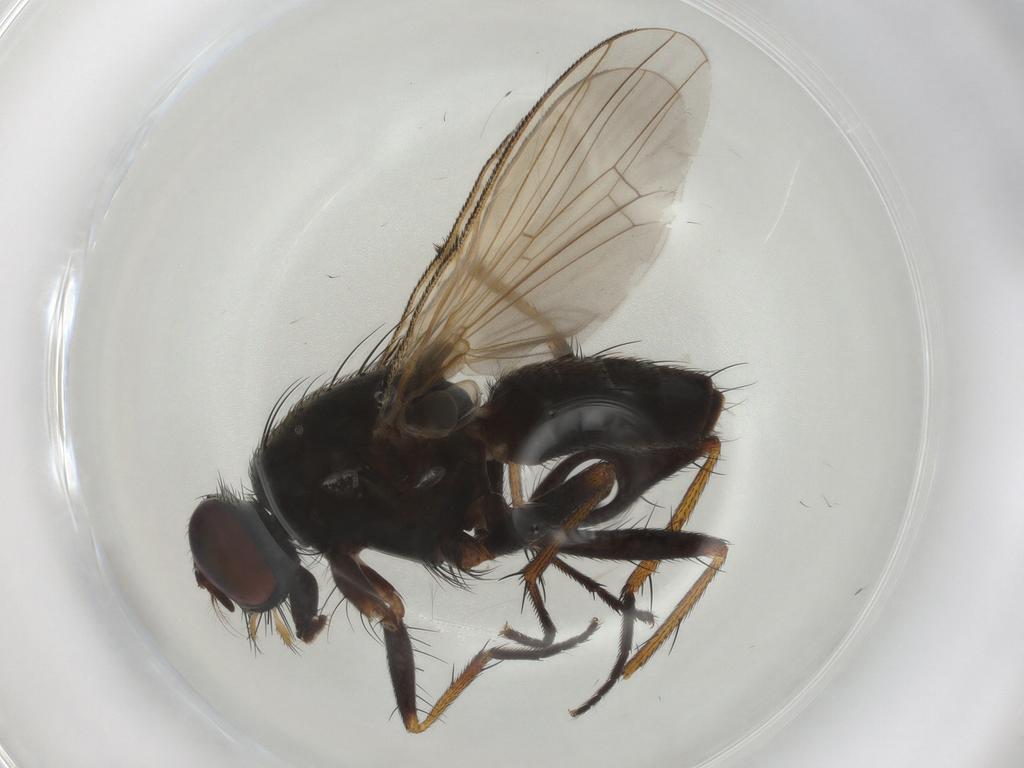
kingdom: Animalia
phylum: Arthropoda
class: Insecta
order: Diptera
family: Muscidae
